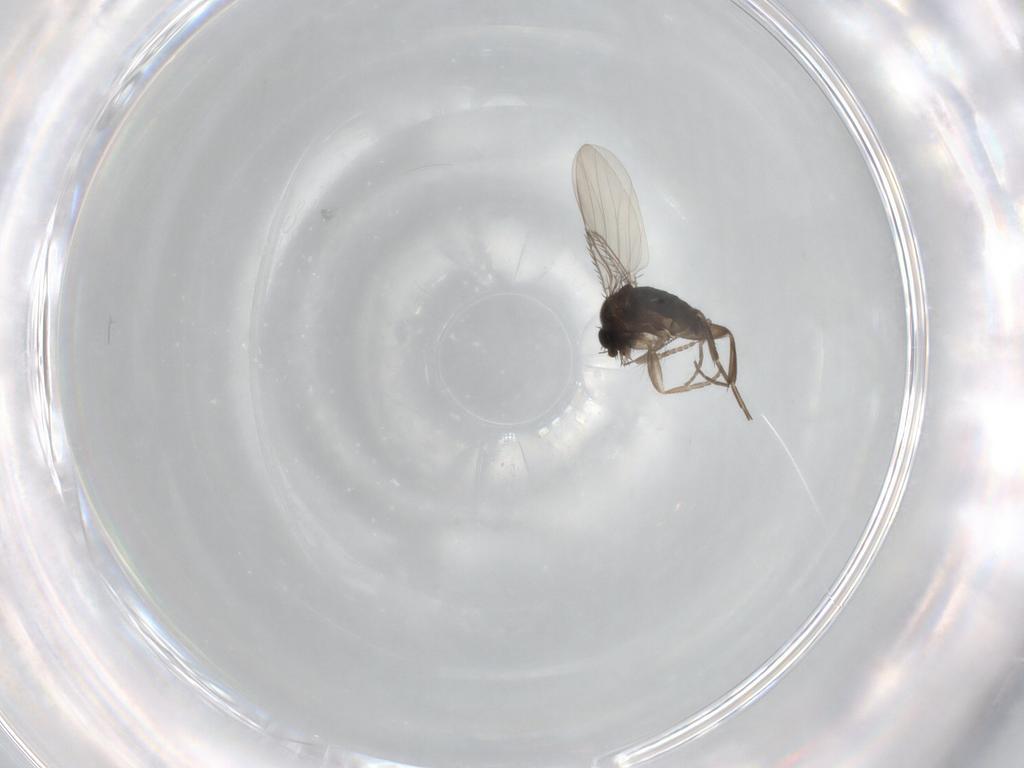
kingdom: Animalia
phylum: Arthropoda
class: Insecta
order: Diptera
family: Phoridae
